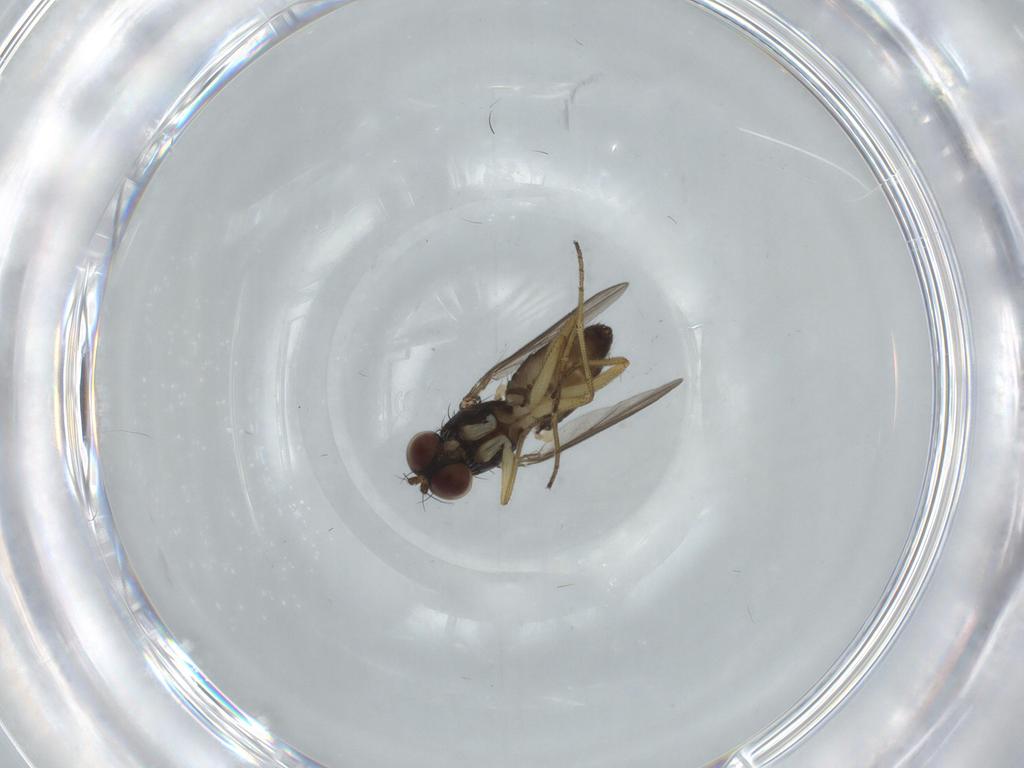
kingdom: Animalia
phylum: Arthropoda
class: Insecta
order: Diptera
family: Dolichopodidae
